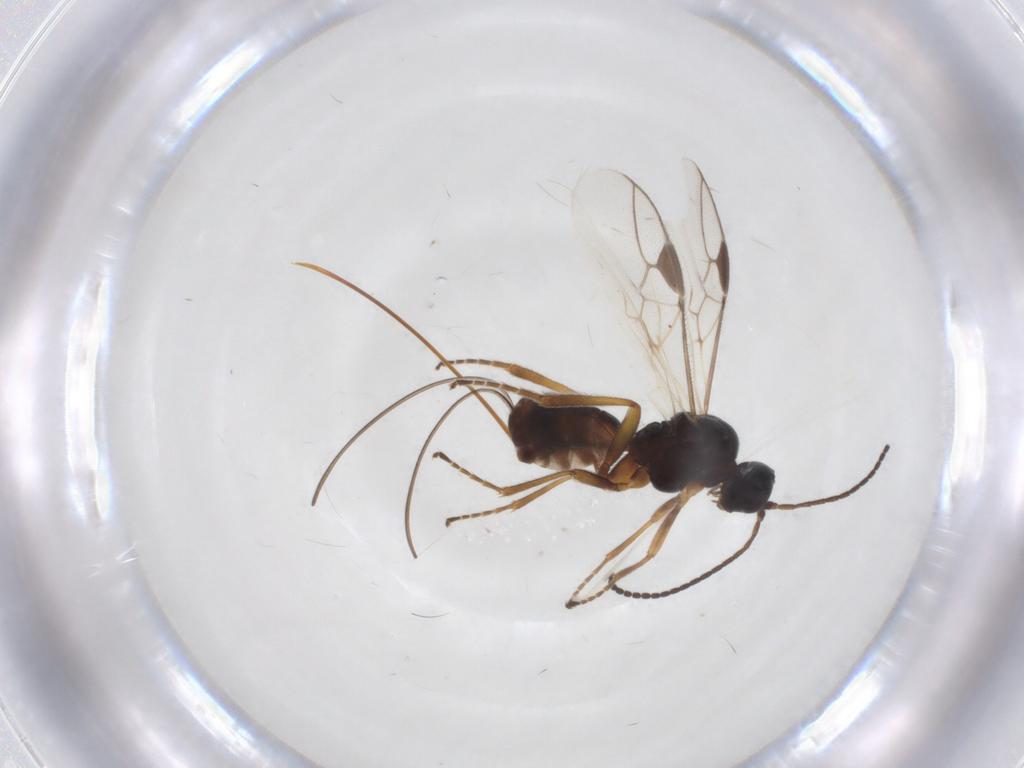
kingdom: Animalia
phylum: Arthropoda
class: Insecta
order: Hymenoptera
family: Braconidae
